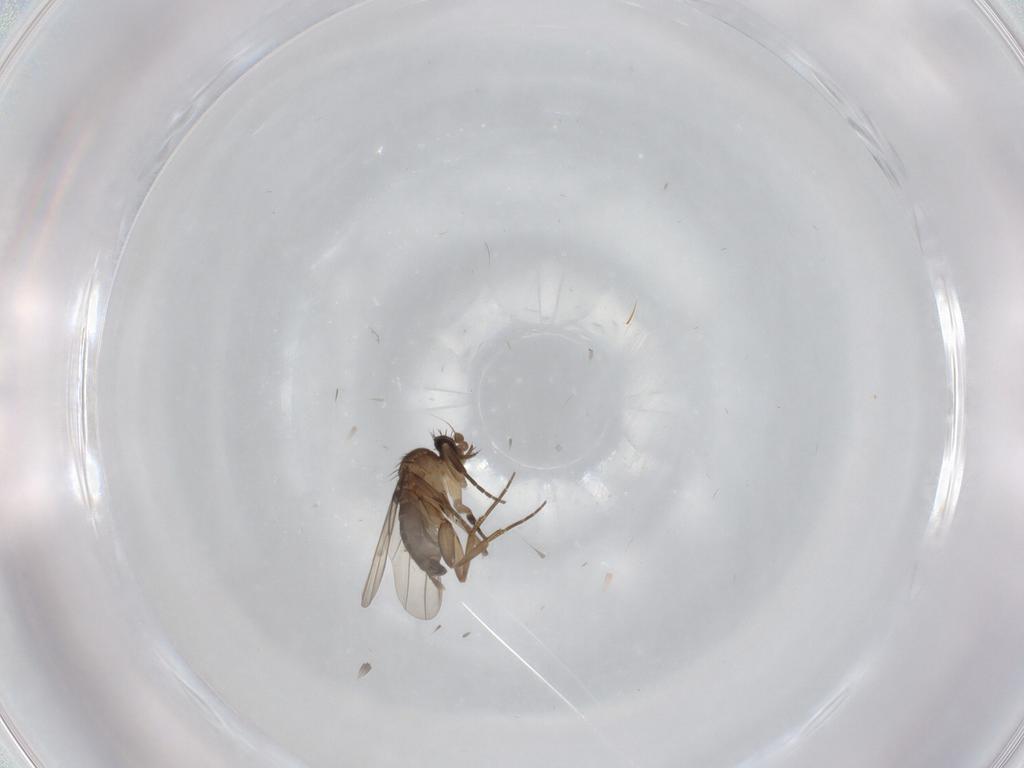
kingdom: Animalia
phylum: Arthropoda
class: Insecta
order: Diptera
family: Phoridae
